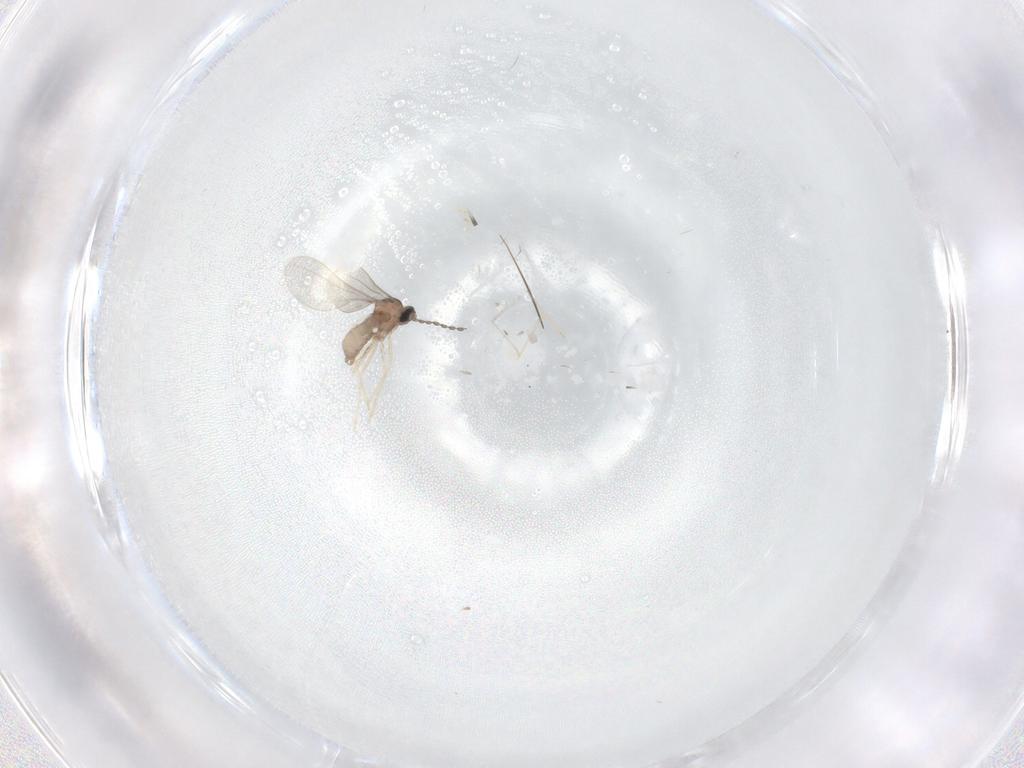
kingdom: Animalia
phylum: Arthropoda
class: Insecta
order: Diptera
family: Cecidomyiidae
